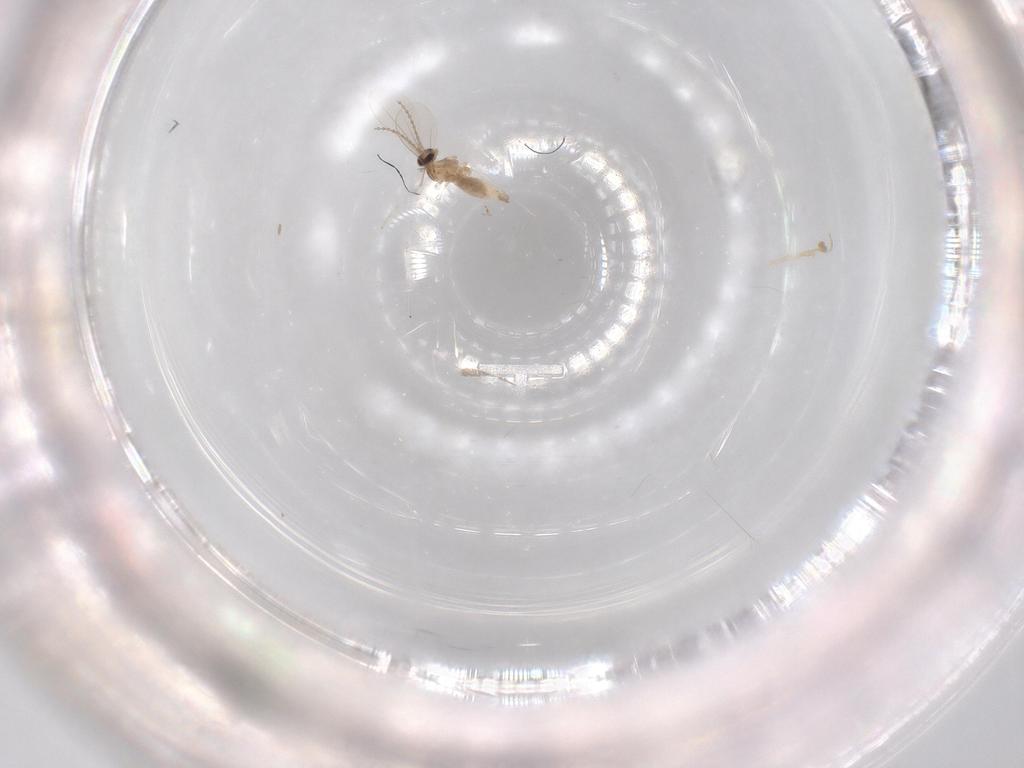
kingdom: Animalia
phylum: Arthropoda
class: Insecta
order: Diptera
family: Cecidomyiidae
